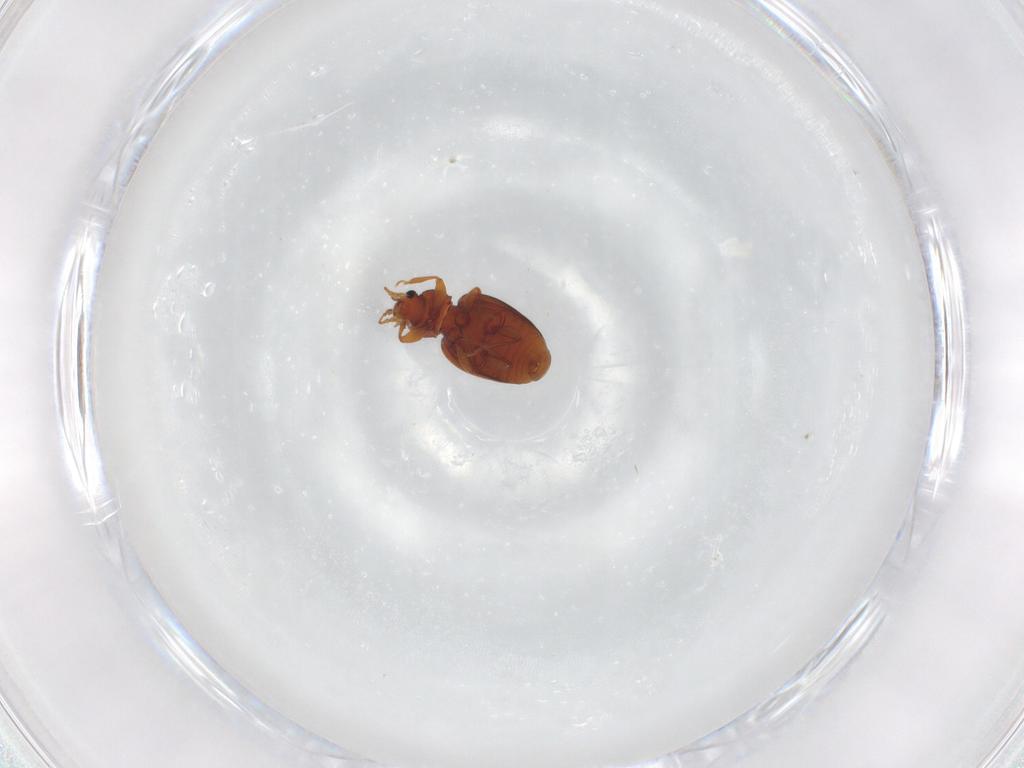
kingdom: Animalia
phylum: Arthropoda
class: Insecta
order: Coleoptera
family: Latridiidae
